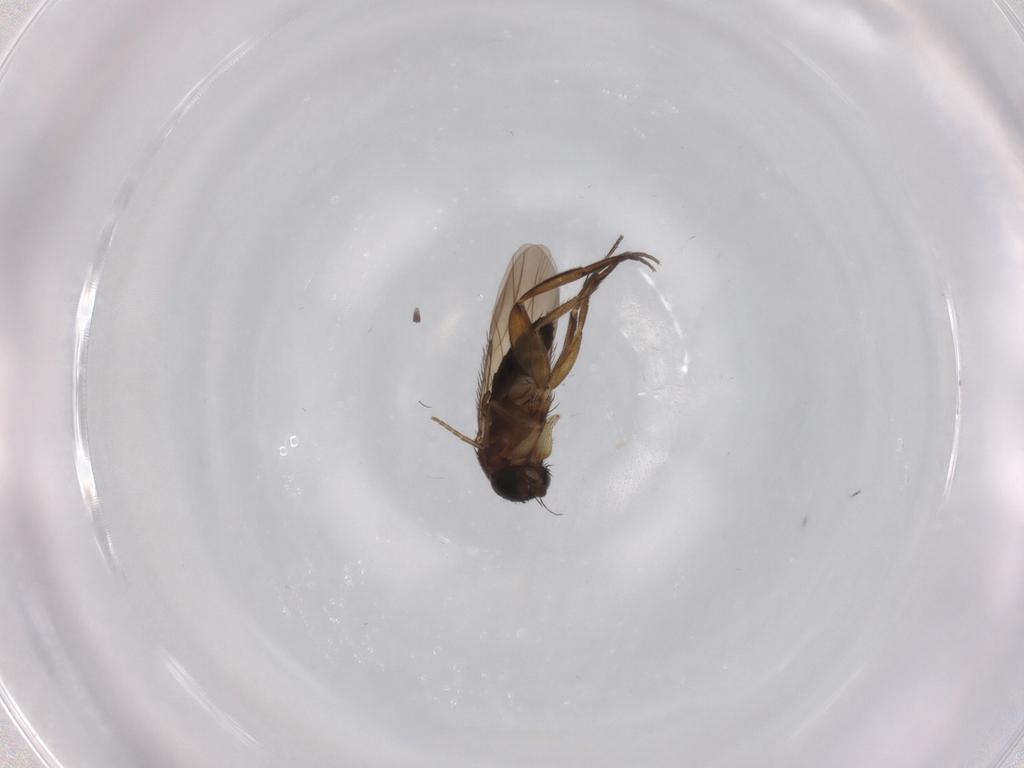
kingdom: Animalia
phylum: Arthropoda
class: Insecta
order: Diptera
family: Phoridae
